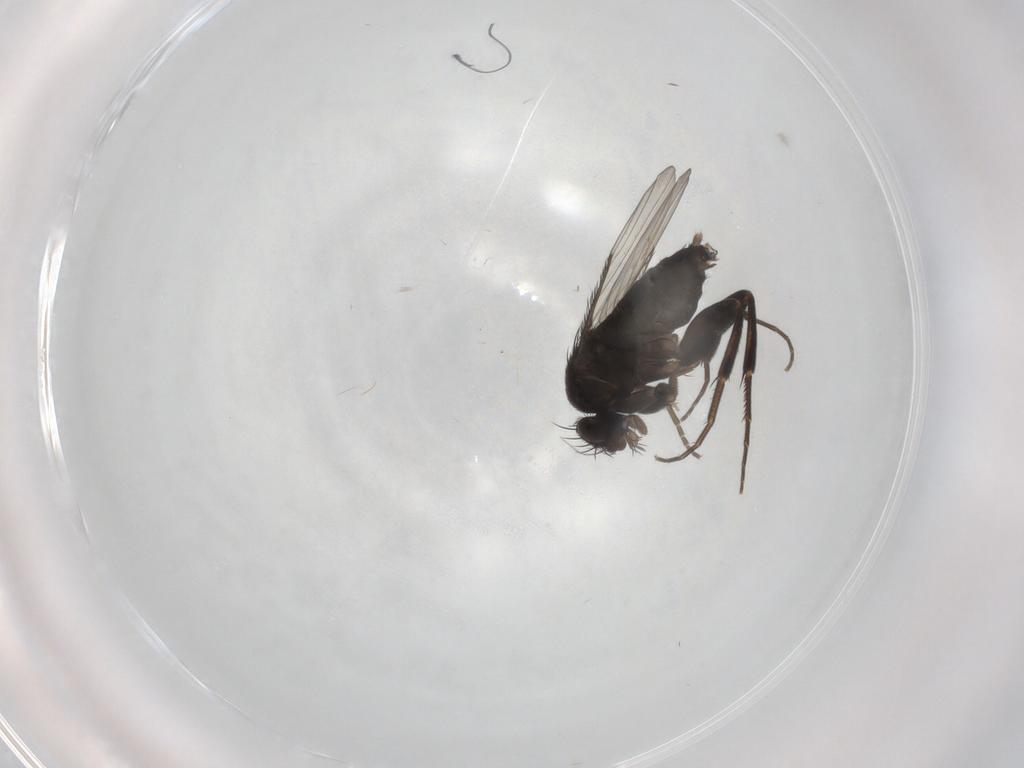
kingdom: Animalia
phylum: Arthropoda
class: Insecta
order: Diptera
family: Phoridae
